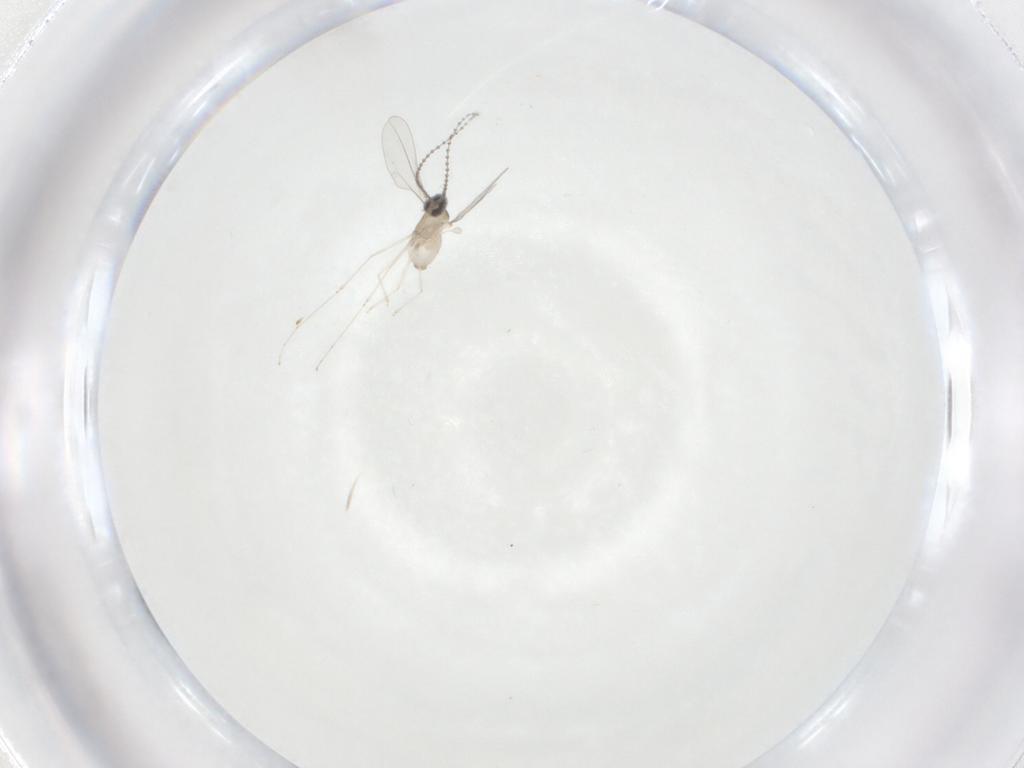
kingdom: Animalia
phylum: Arthropoda
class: Insecta
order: Diptera
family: Cecidomyiidae
